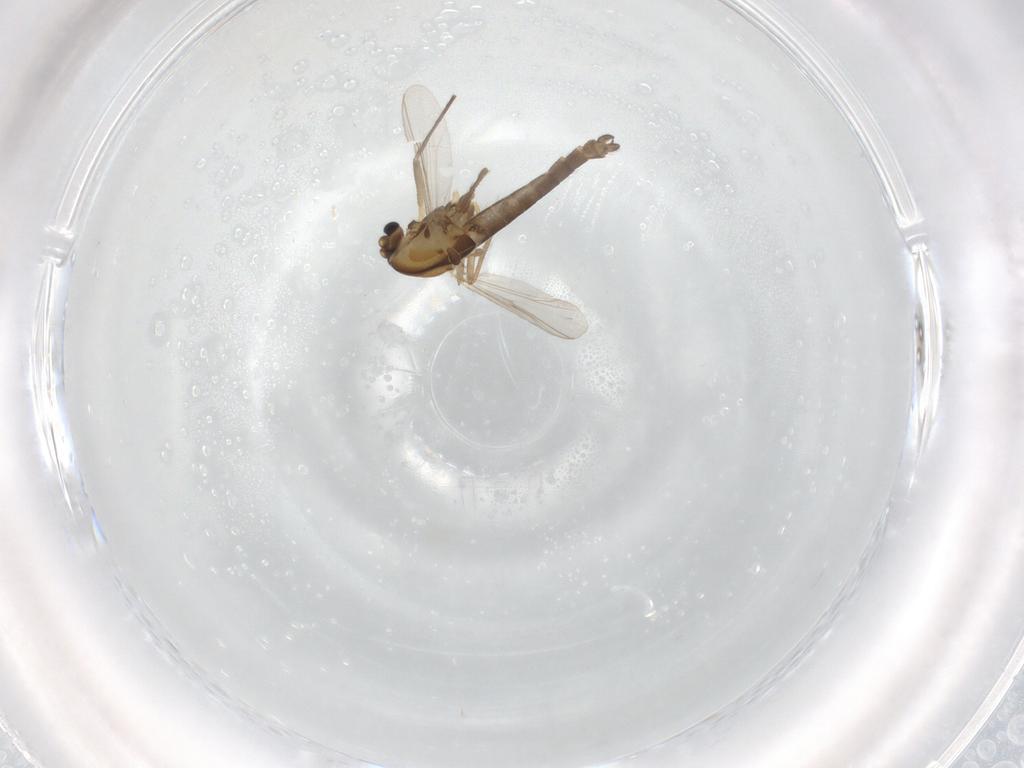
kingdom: Animalia
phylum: Arthropoda
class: Insecta
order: Diptera
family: Chironomidae
